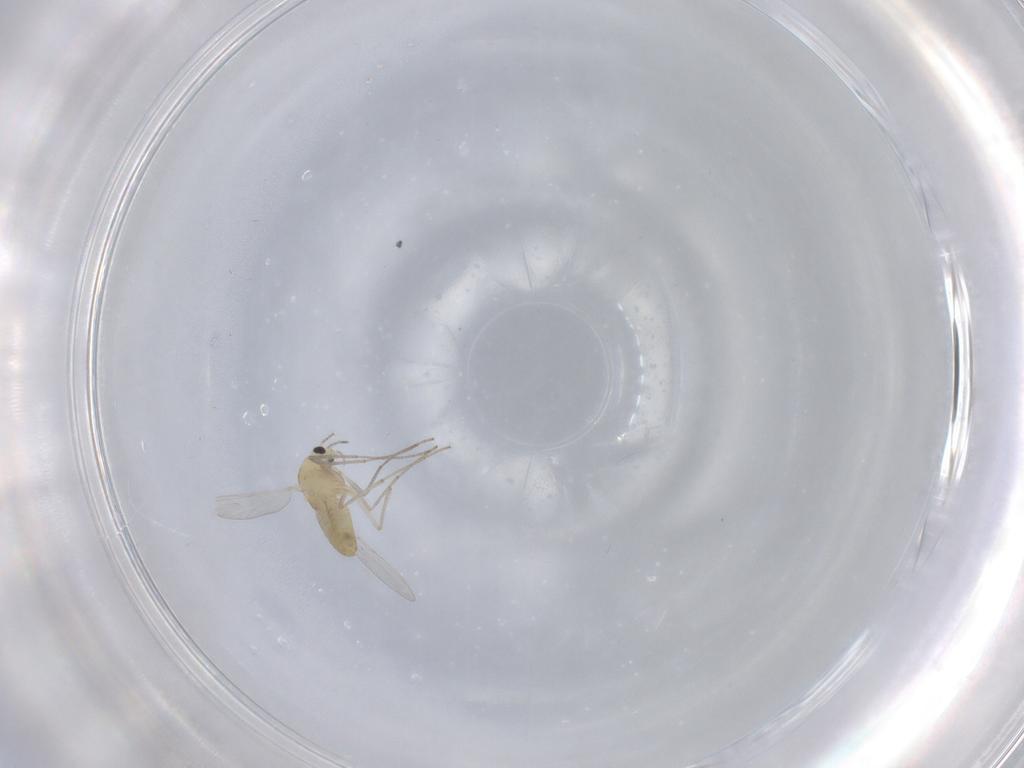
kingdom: Animalia
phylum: Arthropoda
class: Insecta
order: Diptera
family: Chironomidae
